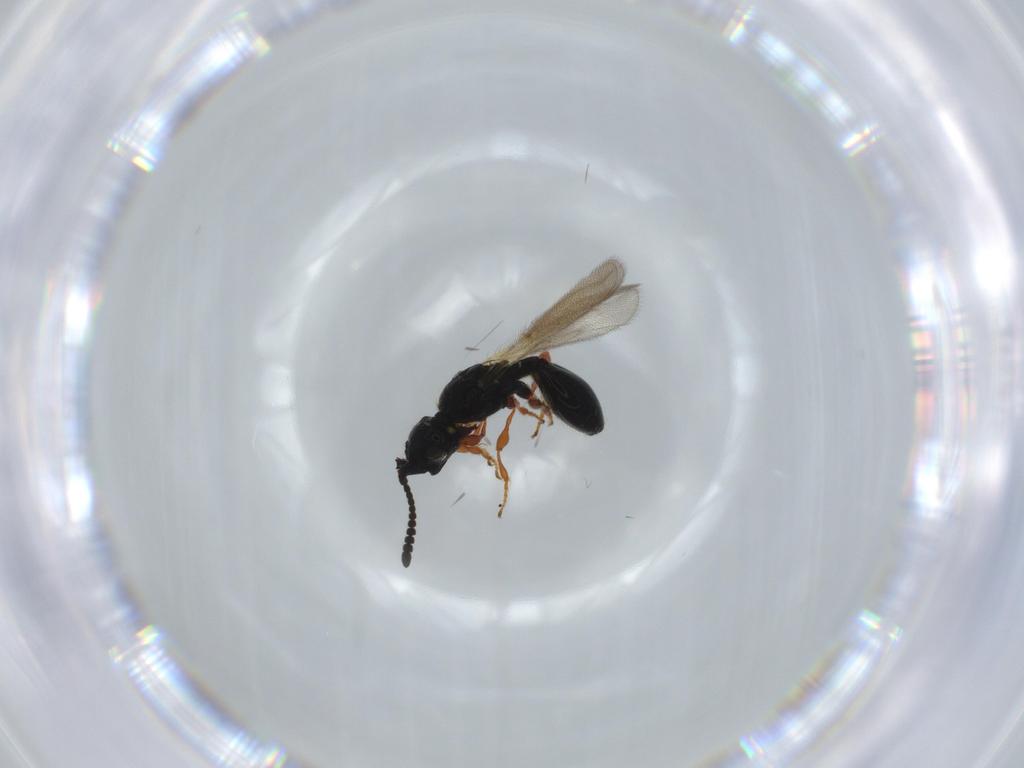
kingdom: Animalia
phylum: Arthropoda
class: Insecta
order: Hymenoptera
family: Diapriidae
